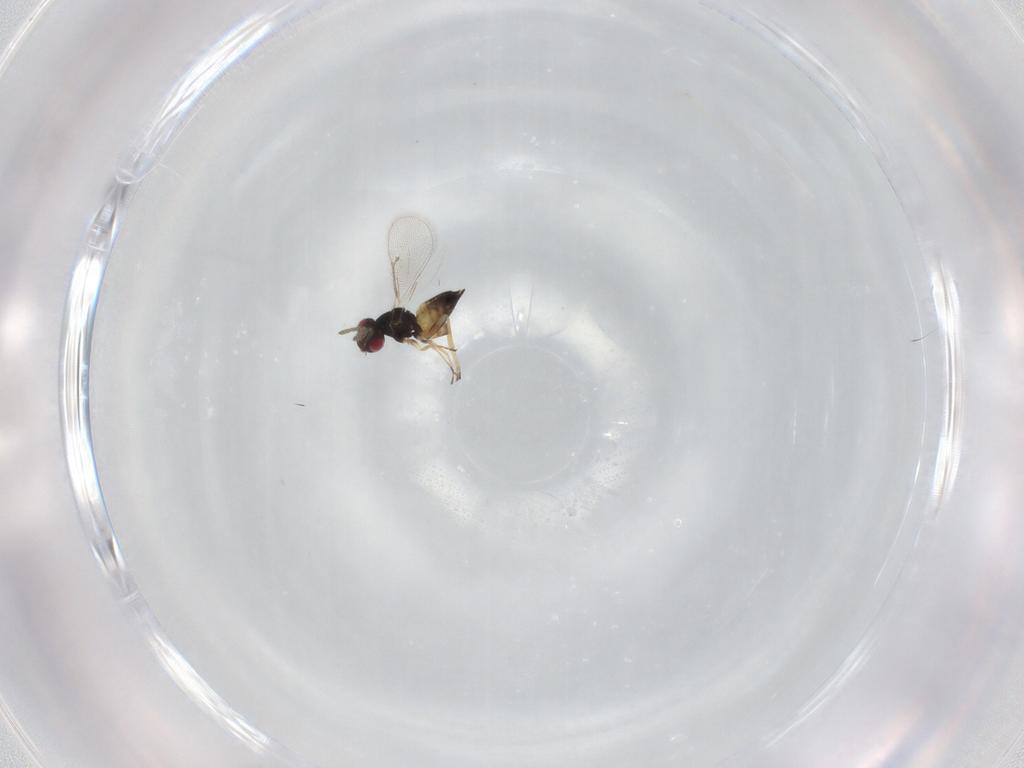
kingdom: Animalia
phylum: Arthropoda
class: Insecta
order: Hymenoptera
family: Eulophidae
